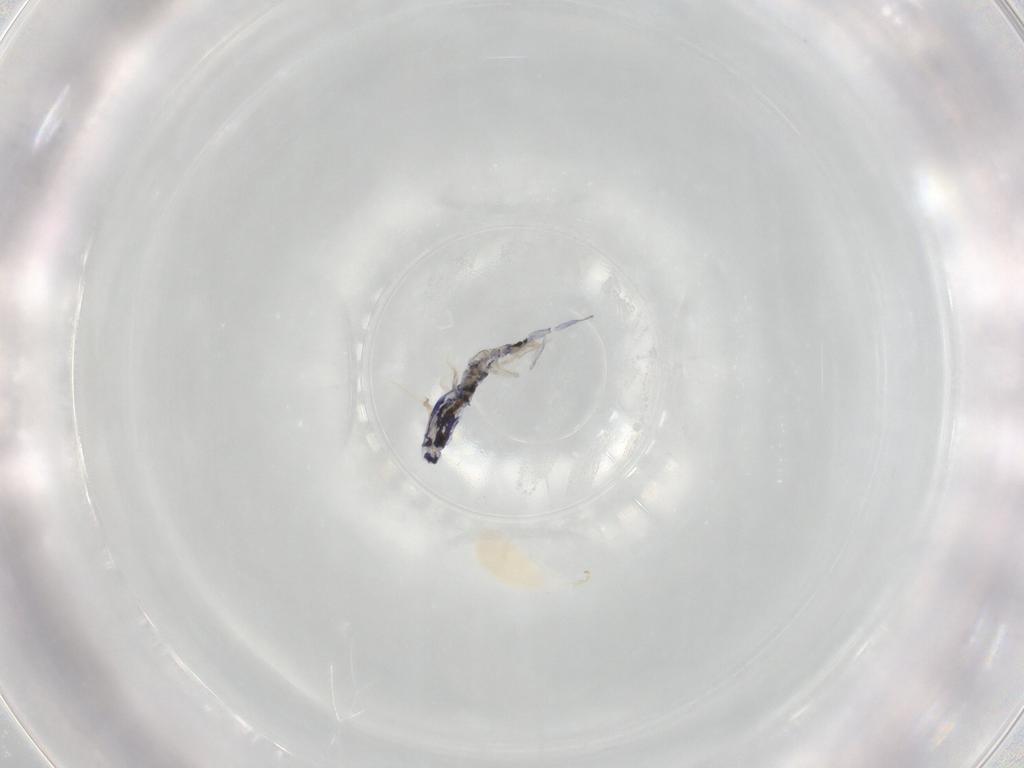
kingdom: Animalia
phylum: Arthropoda
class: Collembola
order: Entomobryomorpha
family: Entomobryidae
